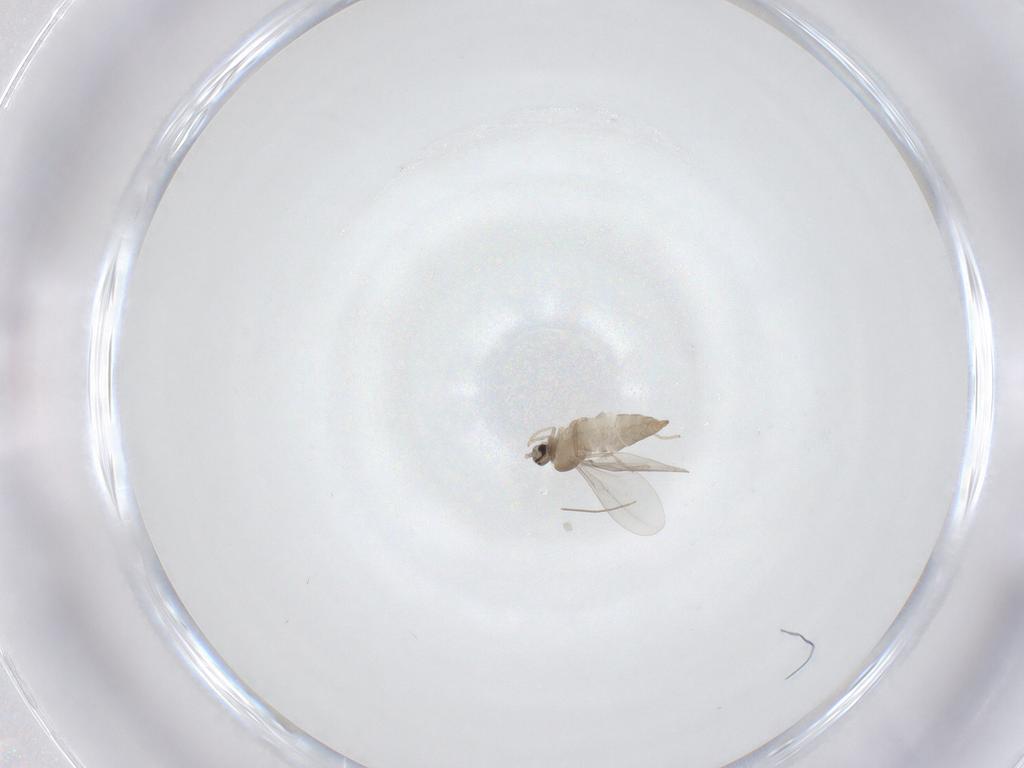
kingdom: Animalia
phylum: Arthropoda
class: Insecta
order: Diptera
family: Cecidomyiidae
